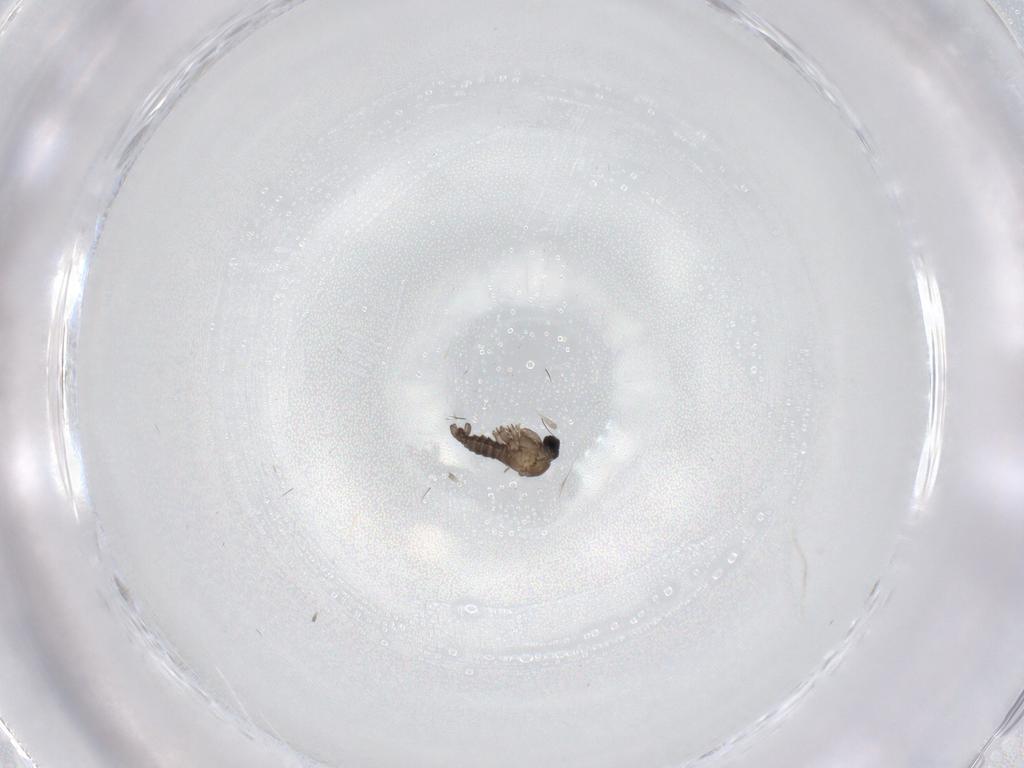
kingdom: Animalia
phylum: Arthropoda
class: Insecta
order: Diptera
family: Sciaridae
